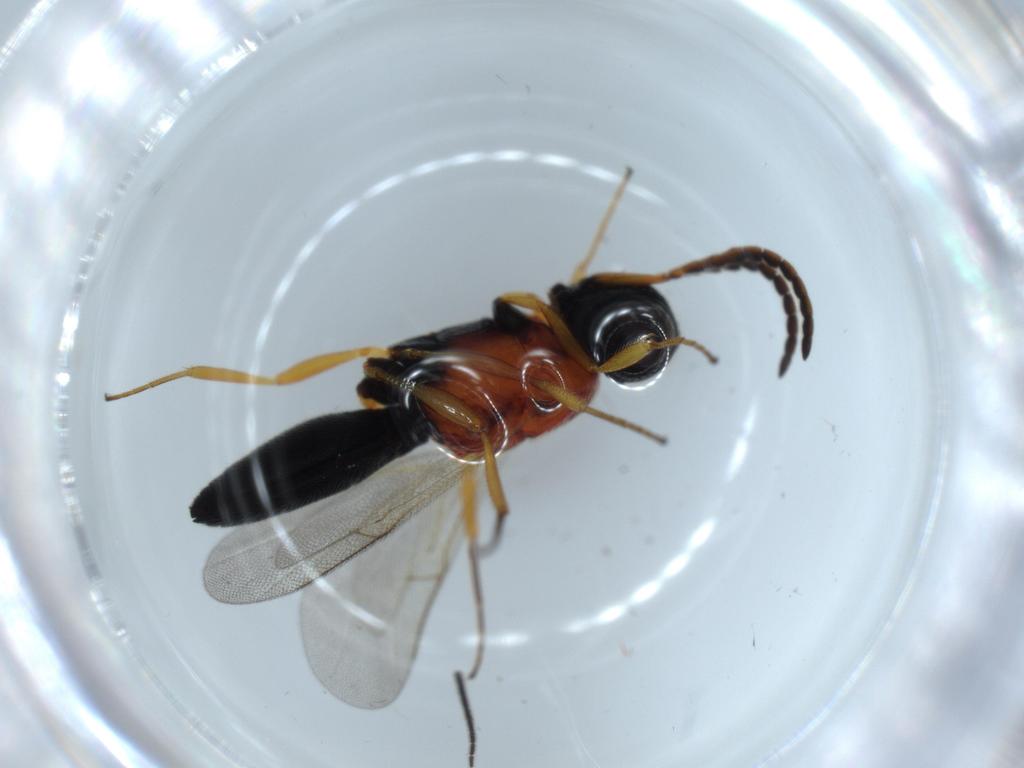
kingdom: Animalia
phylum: Arthropoda
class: Insecta
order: Hymenoptera
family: Scelionidae
